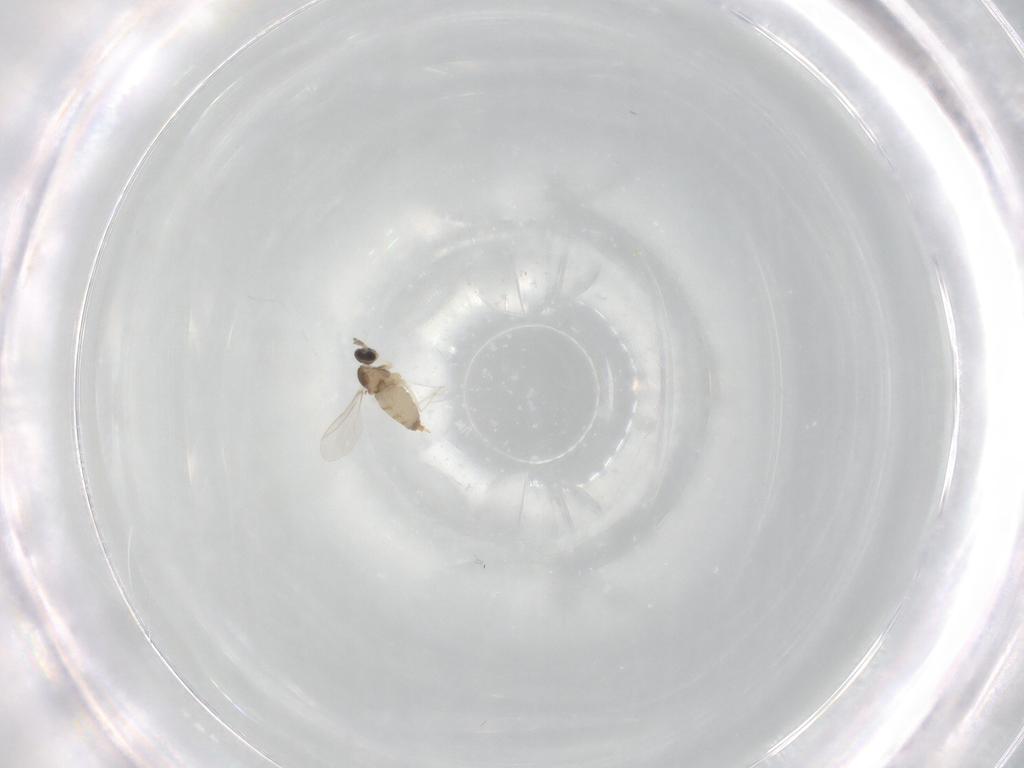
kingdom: Animalia
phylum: Arthropoda
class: Insecta
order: Diptera
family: Cecidomyiidae
